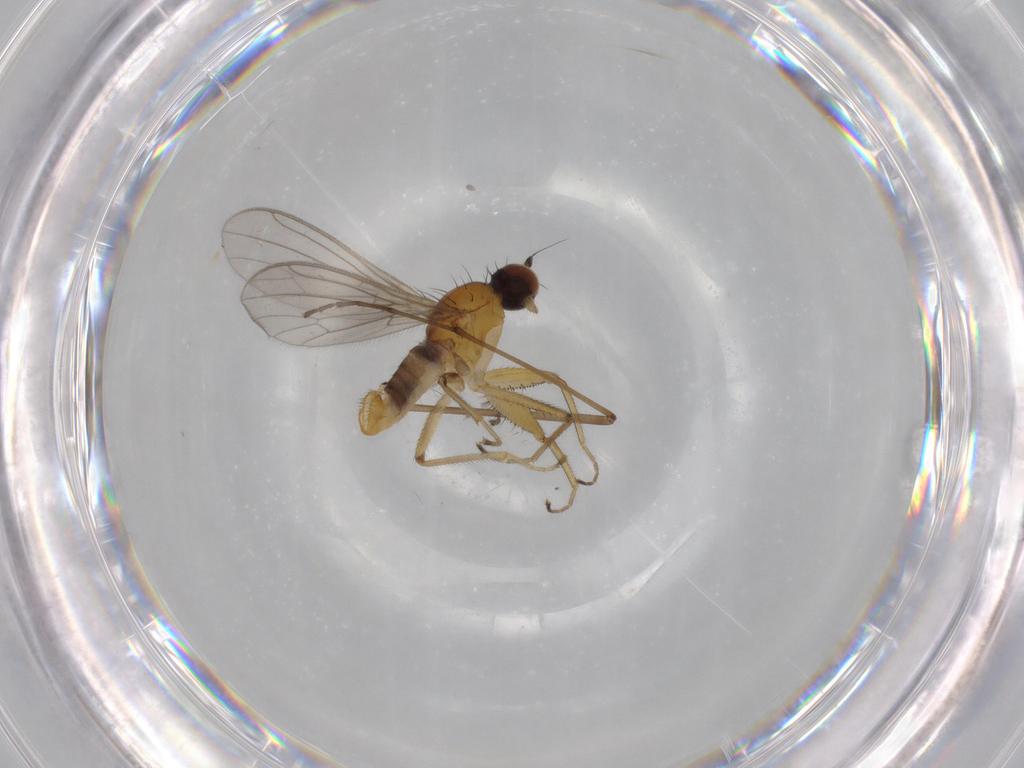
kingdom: Animalia
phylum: Arthropoda
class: Insecta
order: Diptera
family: Empididae
